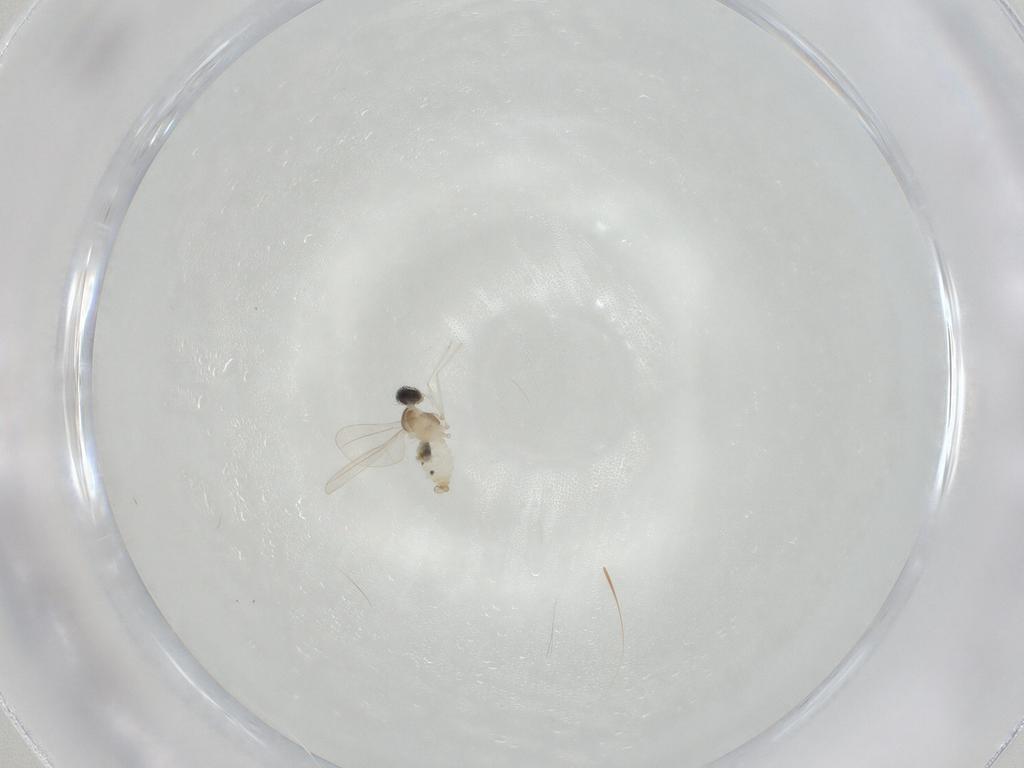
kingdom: Animalia
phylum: Arthropoda
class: Insecta
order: Diptera
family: Cecidomyiidae
